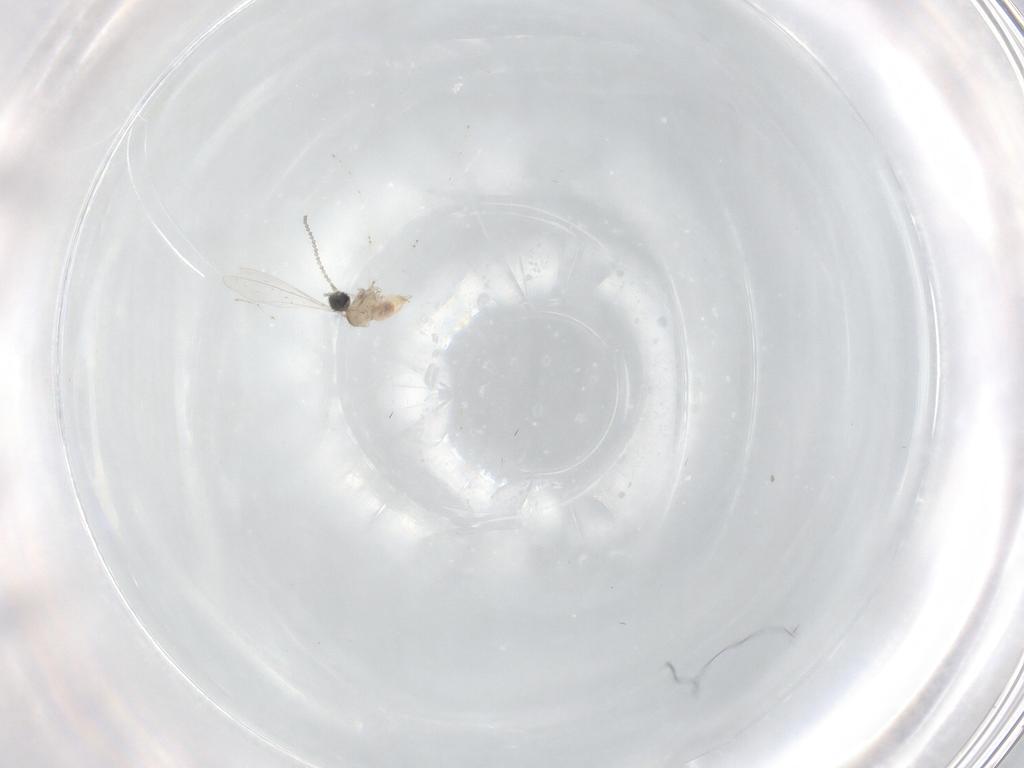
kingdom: Animalia
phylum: Arthropoda
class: Insecta
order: Diptera
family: Cecidomyiidae
